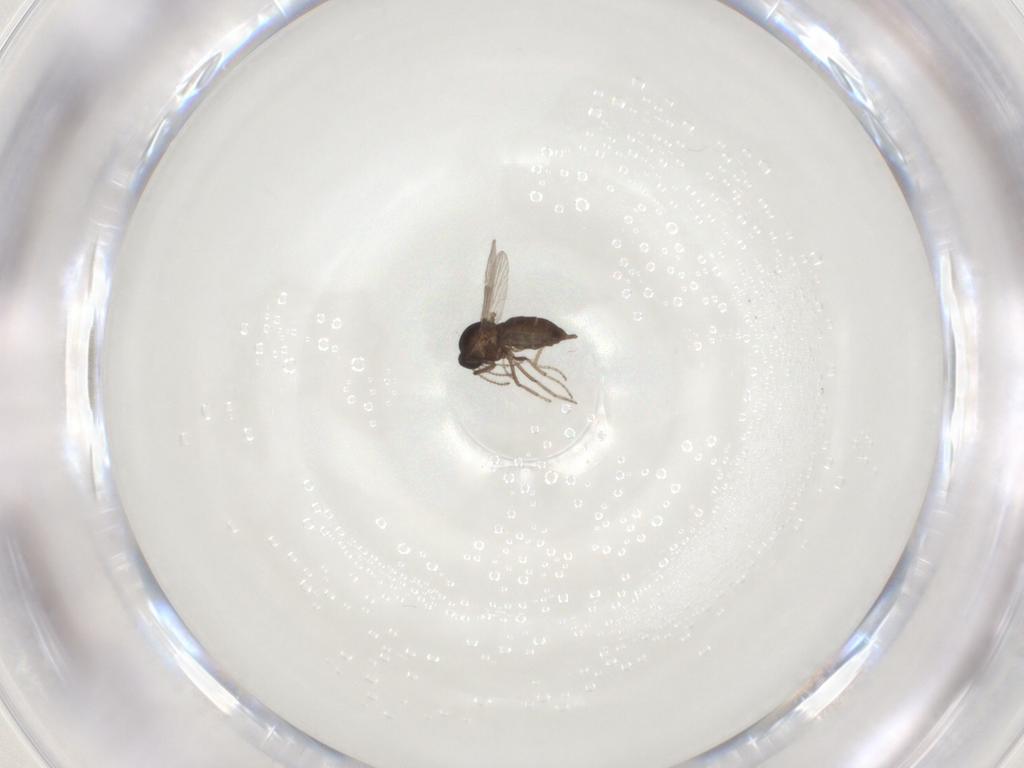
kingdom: Animalia
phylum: Arthropoda
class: Insecta
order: Diptera
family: Ceratopogonidae
